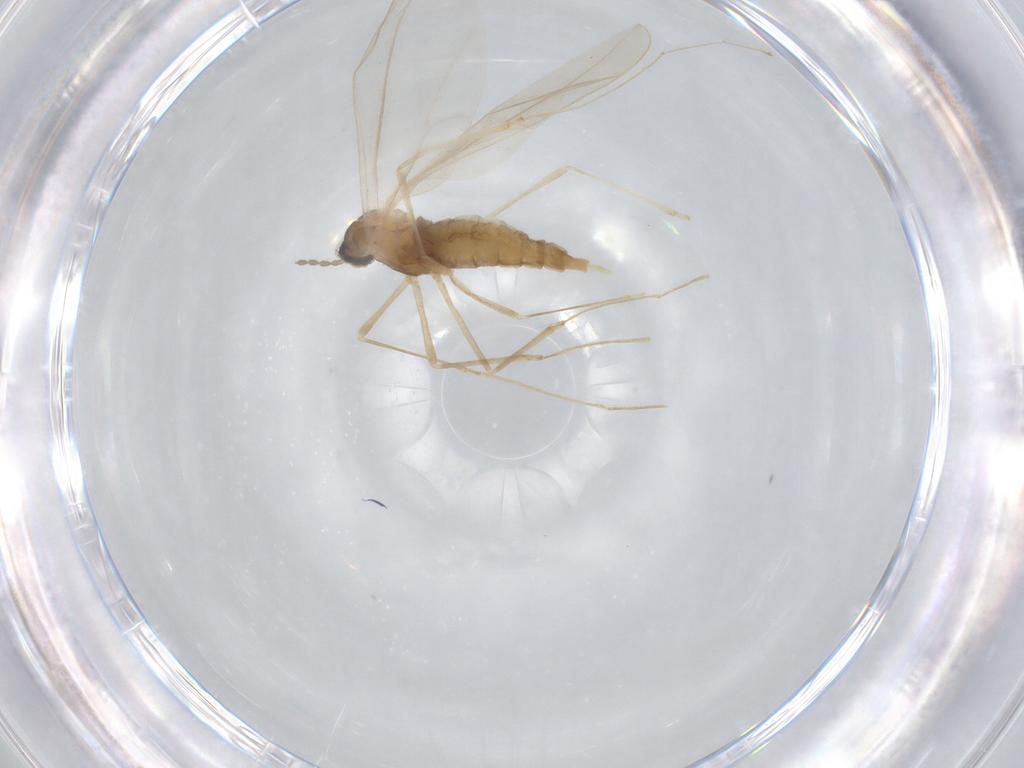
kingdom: Animalia
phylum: Arthropoda
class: Insecta
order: Diptera
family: Cecidomyiidae
